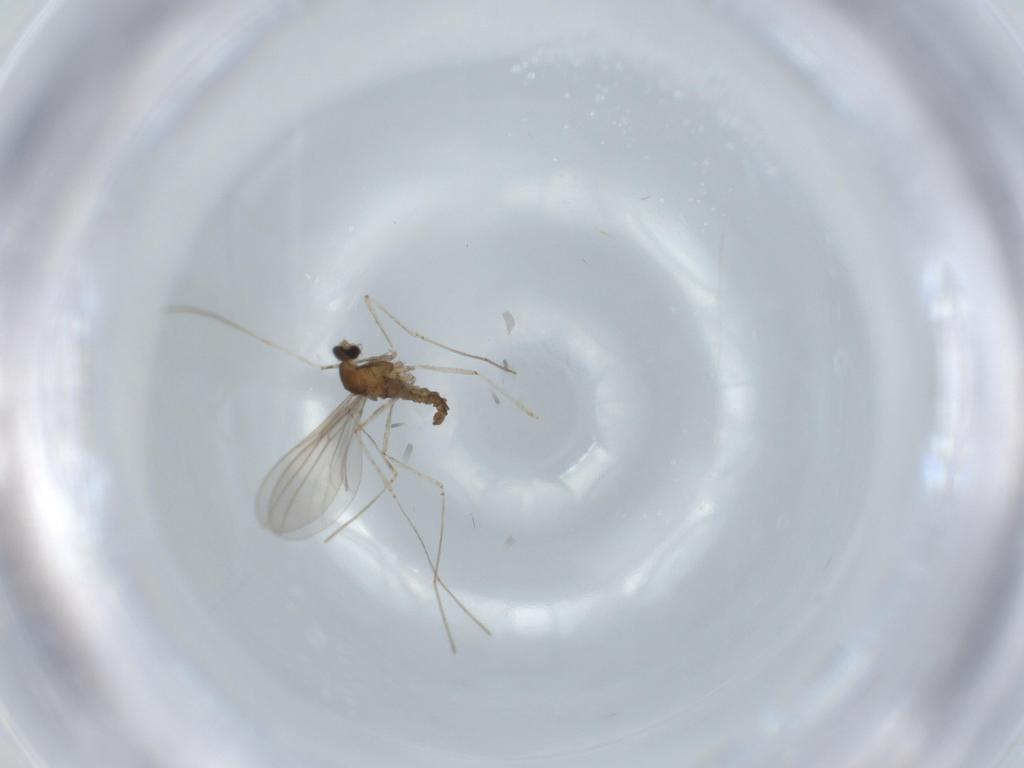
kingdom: Animalia
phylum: Arthropoda
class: Insecta
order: Diptera
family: Cecidomyiidae
